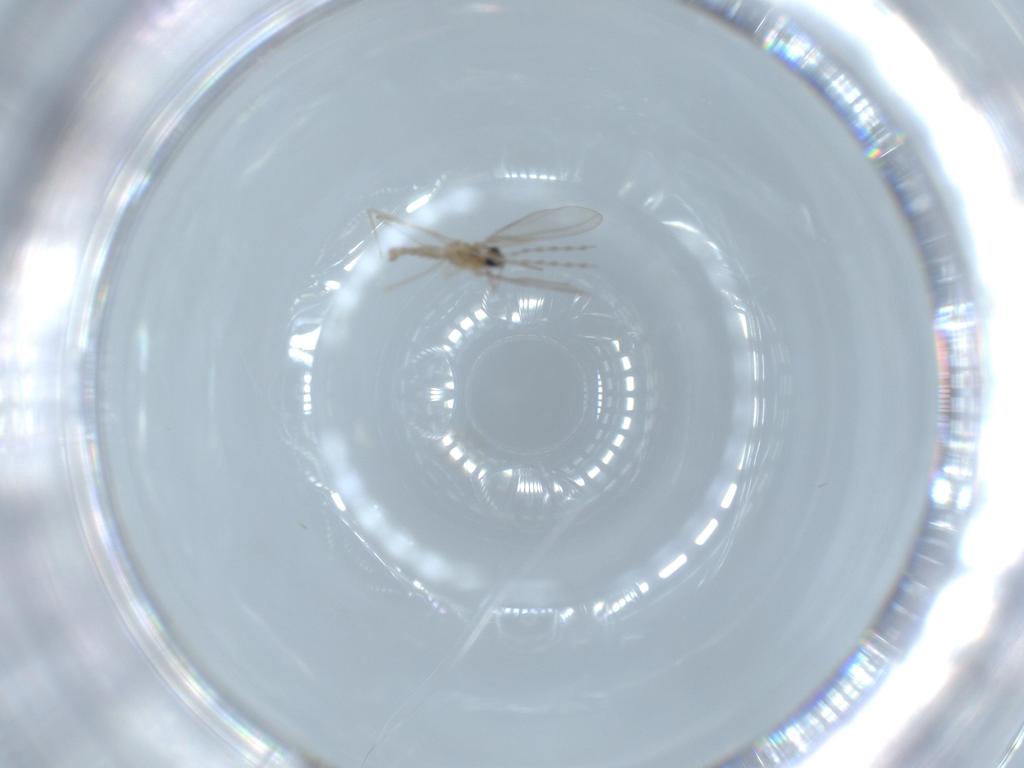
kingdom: Animalia
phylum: Arthropoda
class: Insecta
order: Diptera
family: Cecidomyiidae
